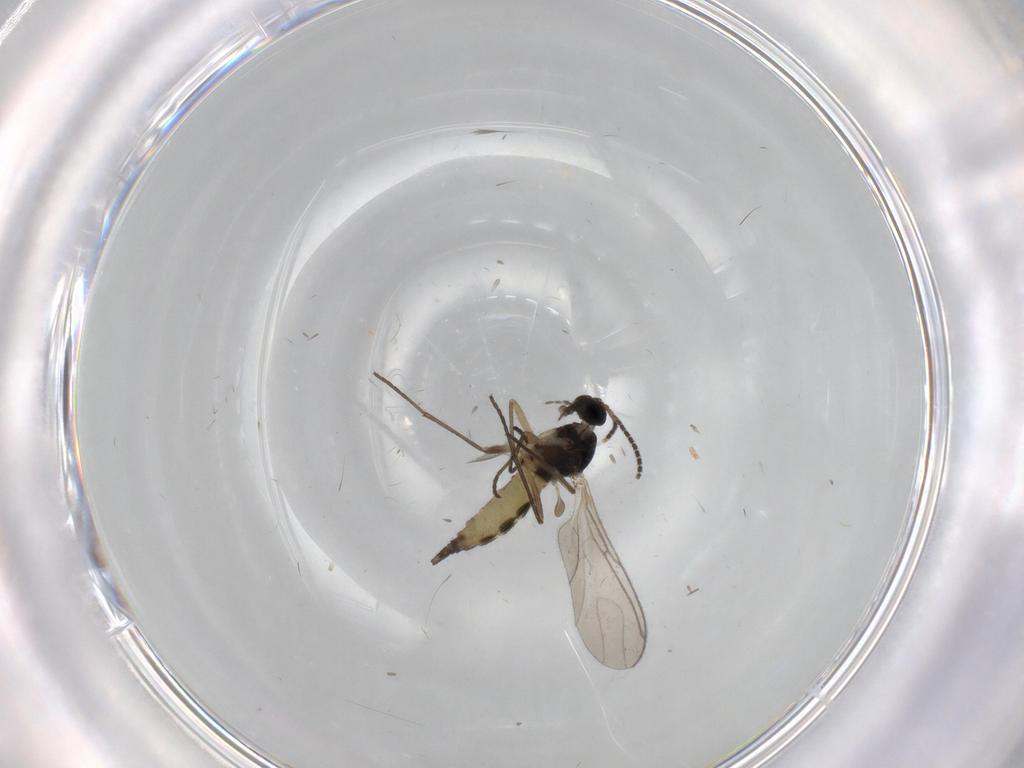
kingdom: Animalia
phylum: Arthropoda
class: Insecta
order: Diptera
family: Sciaridae
